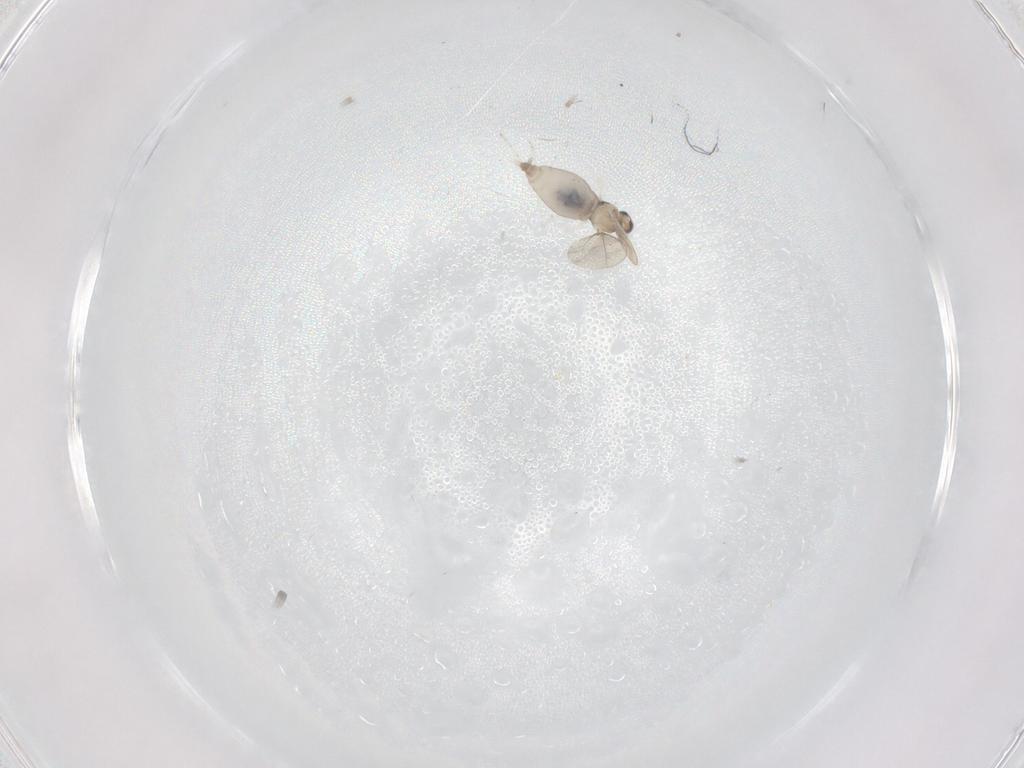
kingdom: Animalia
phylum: Arthropoda
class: Insecta
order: Diptera
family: Cecidomyiidae
